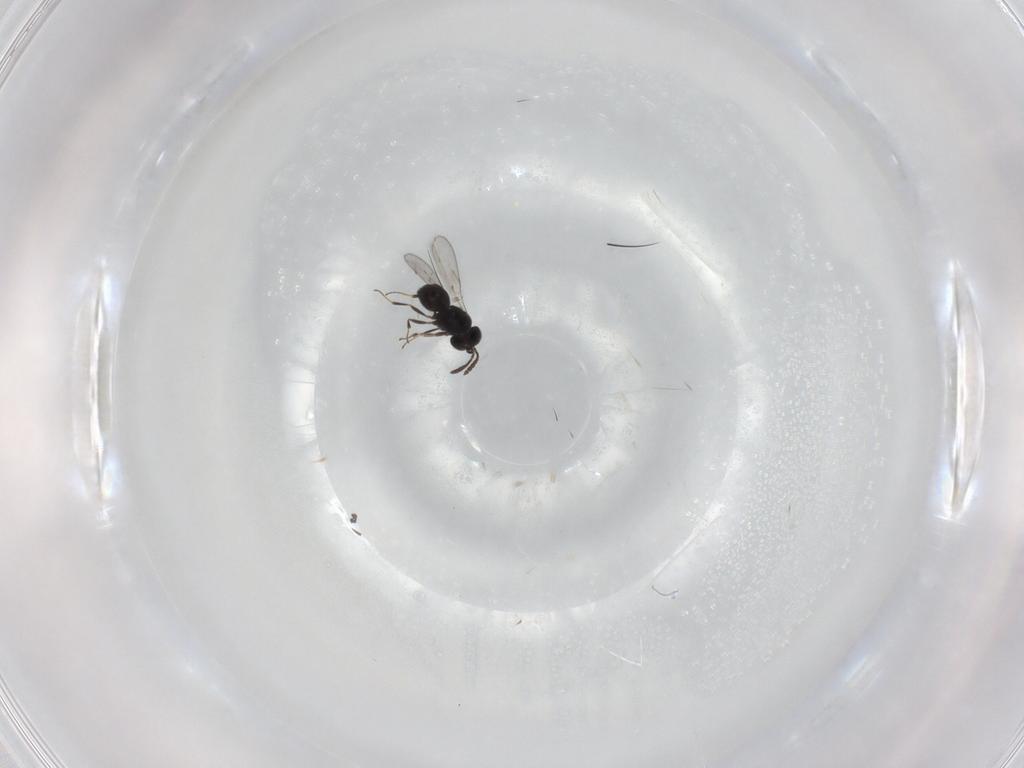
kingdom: Animalia
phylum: Arthropoda
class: Insecta
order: Hymenoptera
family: Scelionidae
